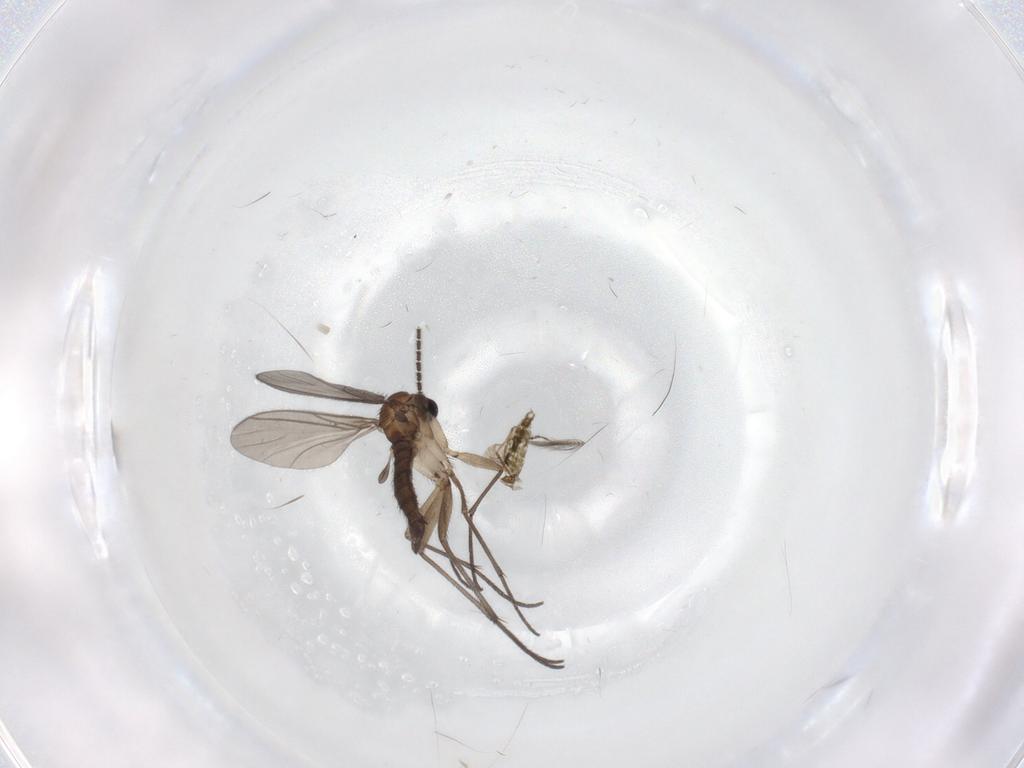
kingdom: Animalia
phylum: Arthropoda
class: Insecta
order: Diptera
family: Sciaridae
